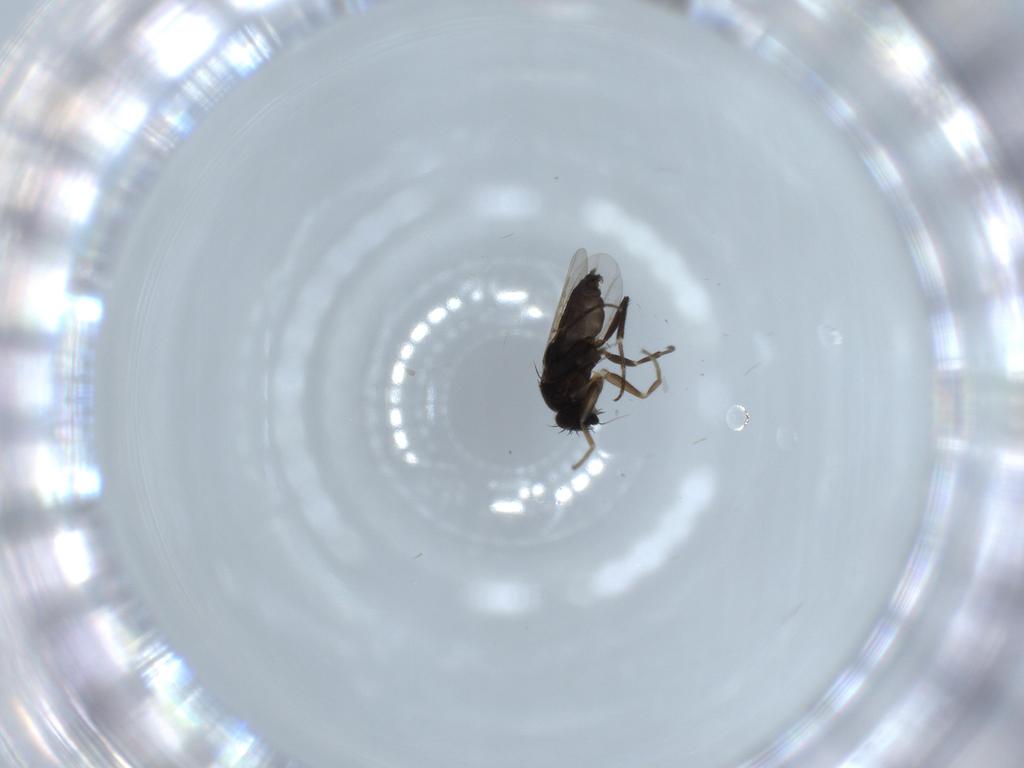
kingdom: Animalia
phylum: Arthropoda
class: Insecta
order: Diptera
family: Phoridae
